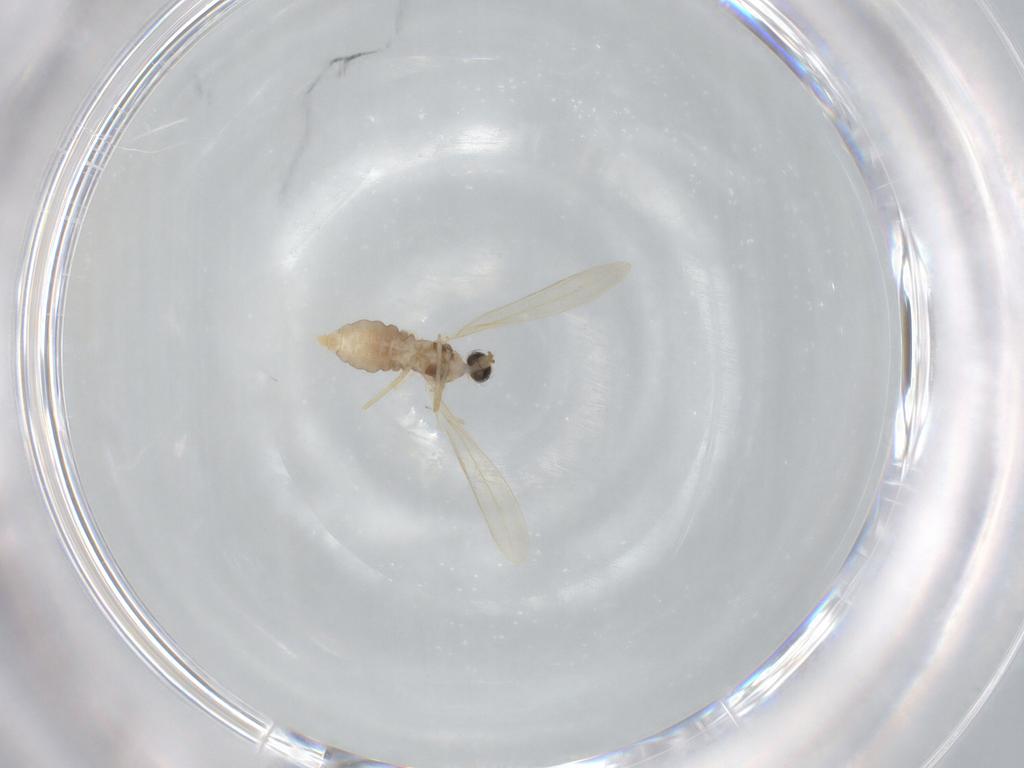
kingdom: Animalia
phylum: Arthropoda
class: Insecta
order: Diptera
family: Cecidomyiidae
